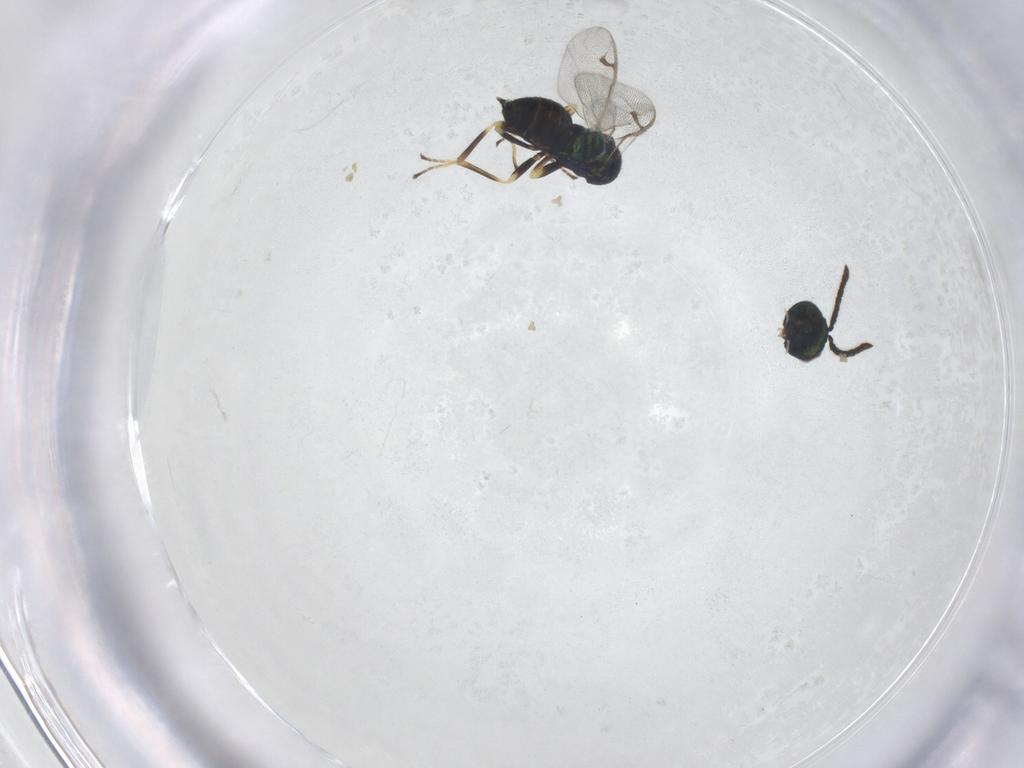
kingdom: Animalia
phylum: Arthropoda
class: Insecta
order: Hymenoptera
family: Pteromalidae
